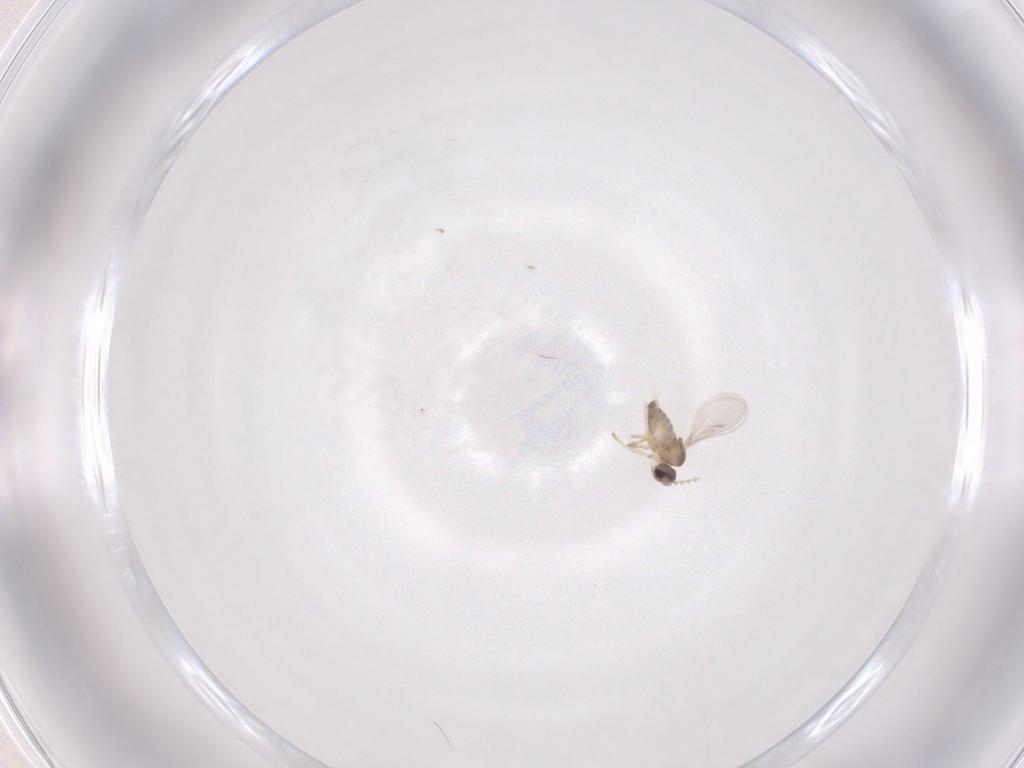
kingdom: Animalia
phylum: Arthropoda
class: Insecta
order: Diptera
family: Cecidomyiidae
